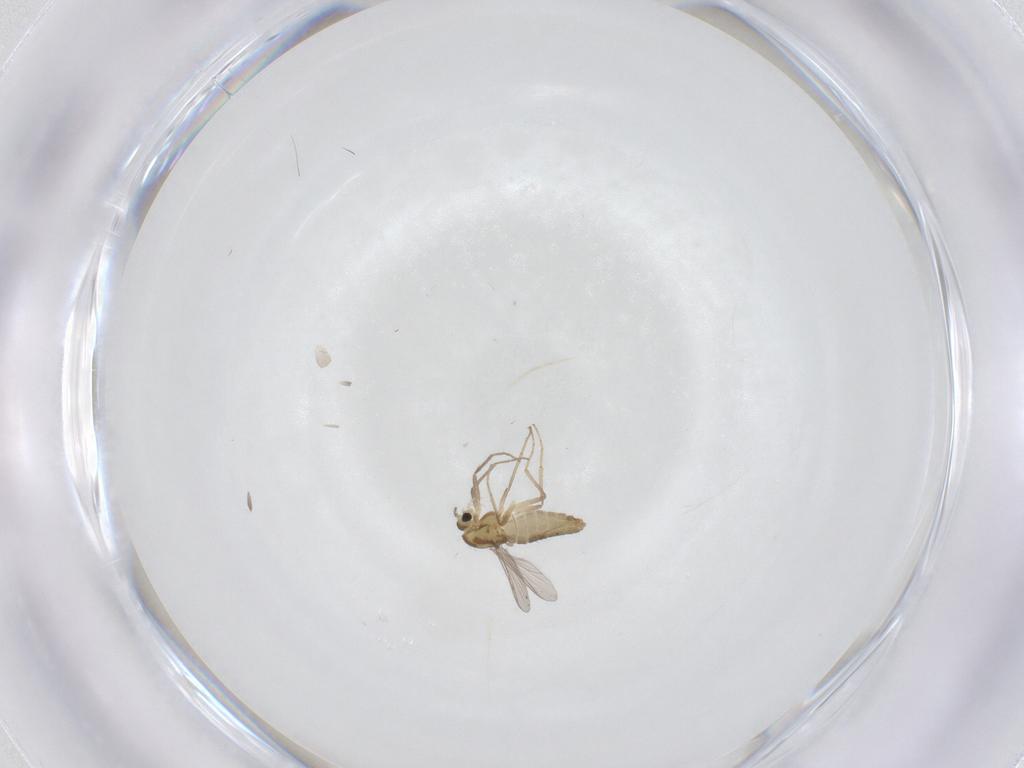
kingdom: Animalia
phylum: Arthropoda
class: Insecta
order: Diptera
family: Chironomidae
